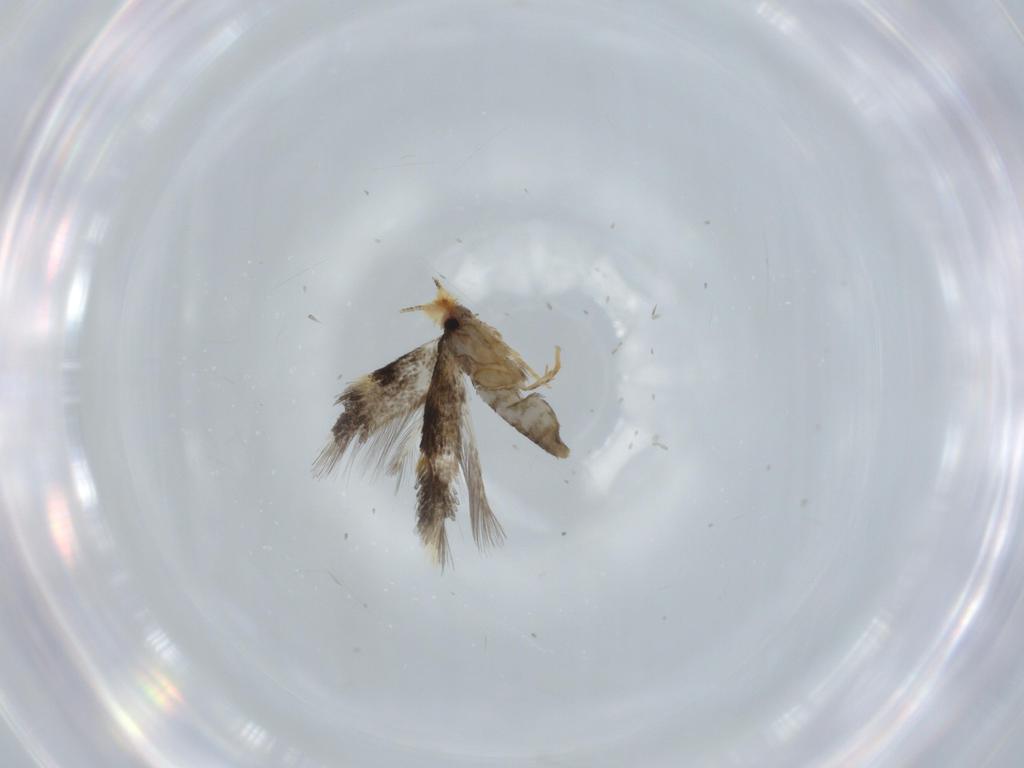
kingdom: Animalia
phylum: Arthropoda
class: Insecta
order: Lepidoptera
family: Nepticulidae
